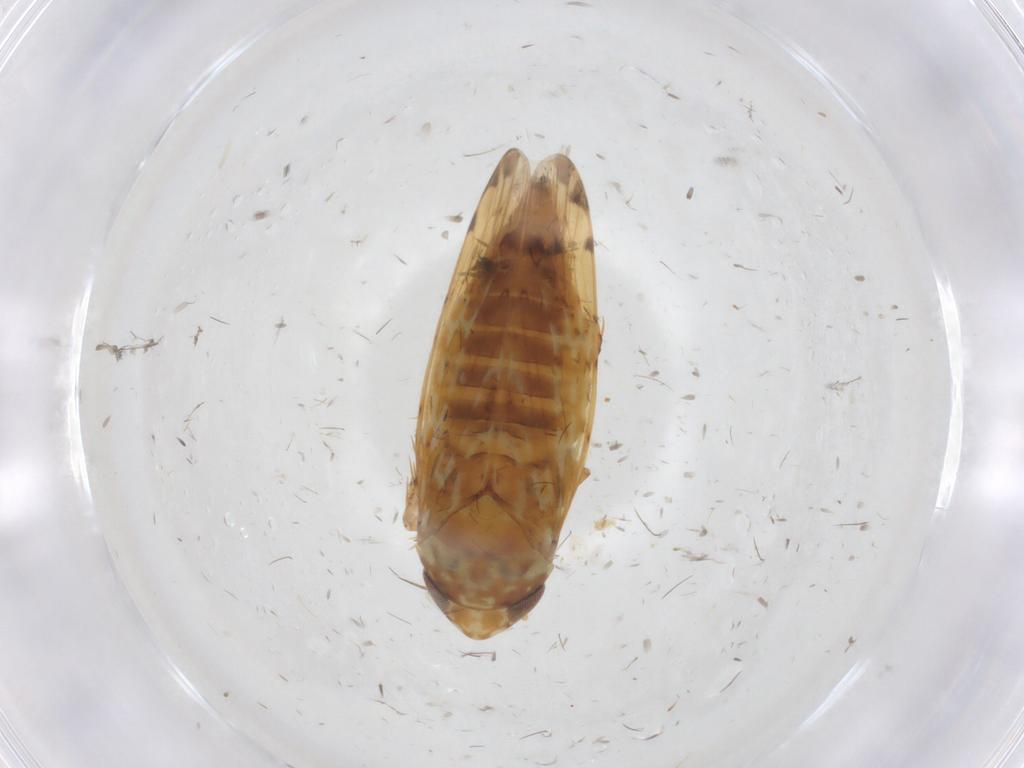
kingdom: Animalia
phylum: Arthropoda
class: Insecta
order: Hemiptera
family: Cicadellidae
